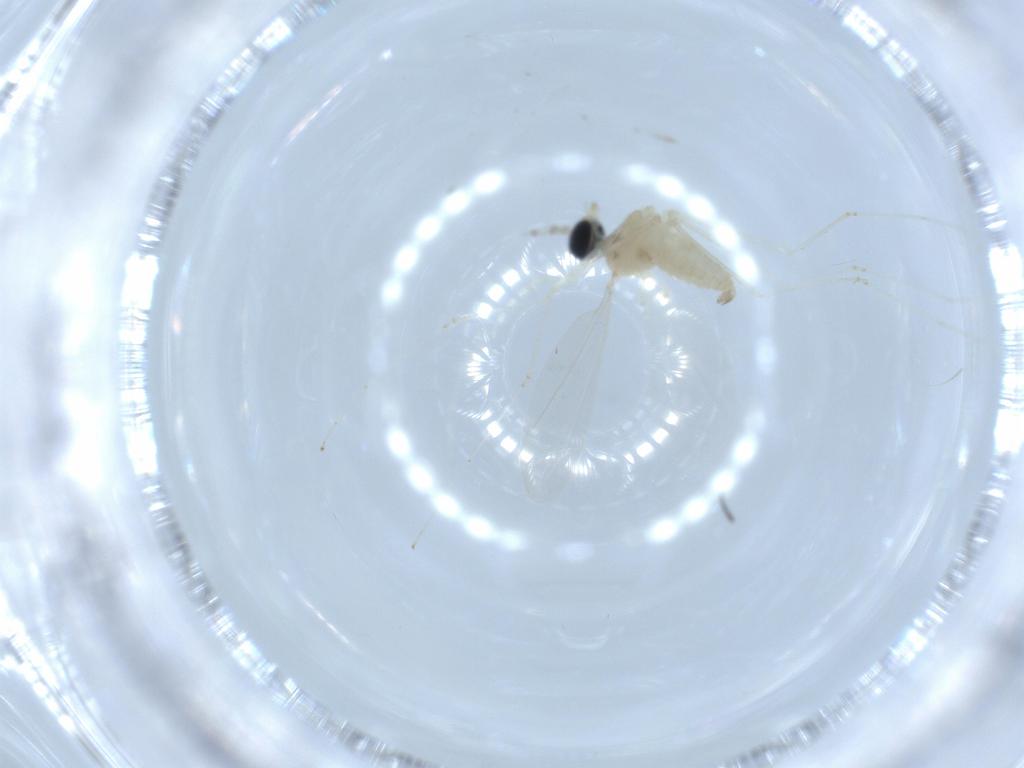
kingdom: Animalia
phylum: Arthropoda
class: Insecta
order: Diptera
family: Cecidomyiidae
